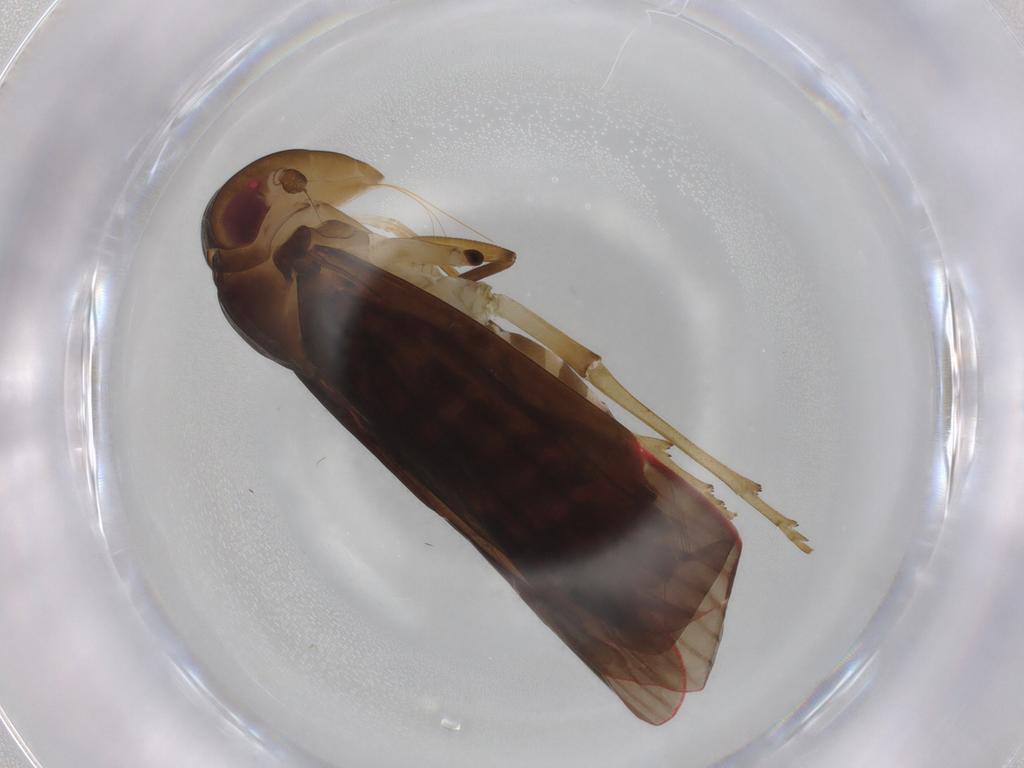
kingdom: Animalia
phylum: Arthropoda
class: Insecta
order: Hemiptera
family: Achilidae
